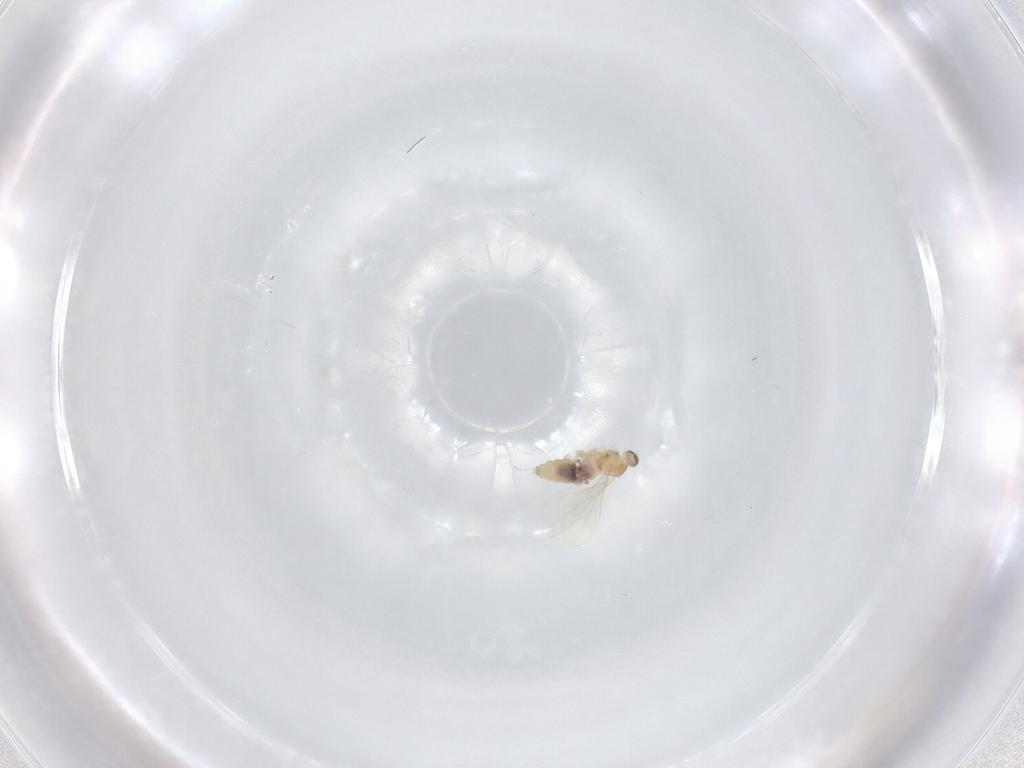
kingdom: Animalia
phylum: Arthropoda
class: Insecta
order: Diptera
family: Cecidomyiidae
